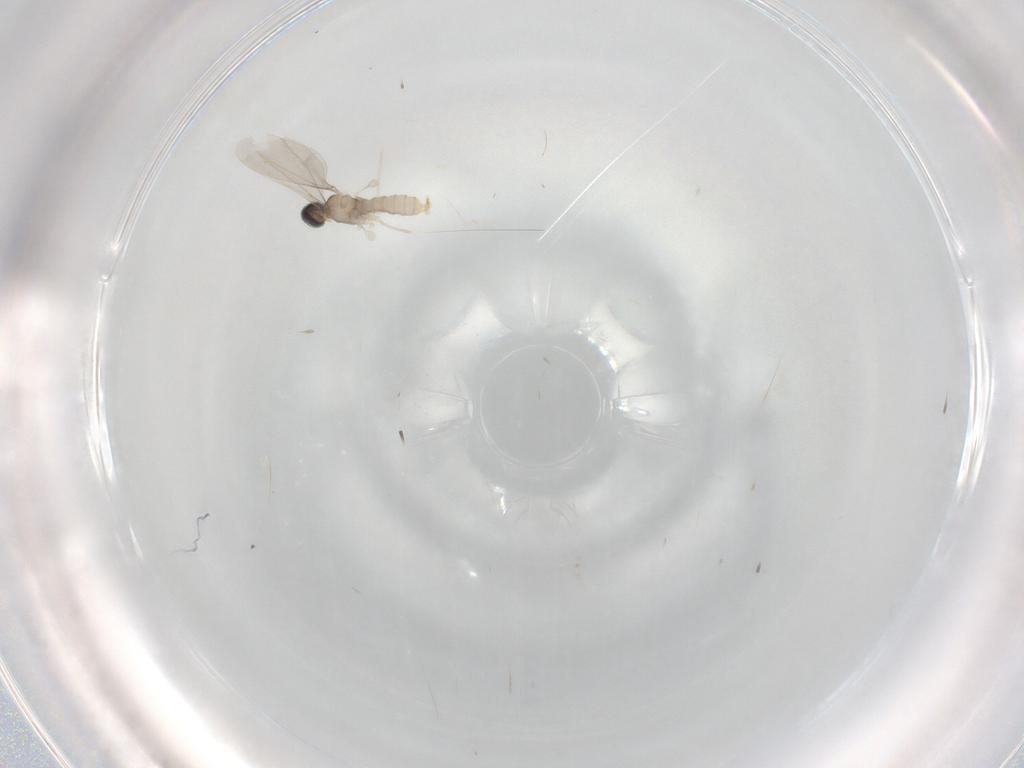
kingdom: Animalia
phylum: Arthropoda
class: Insecta
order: Diptera
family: Cecidomyiidae
